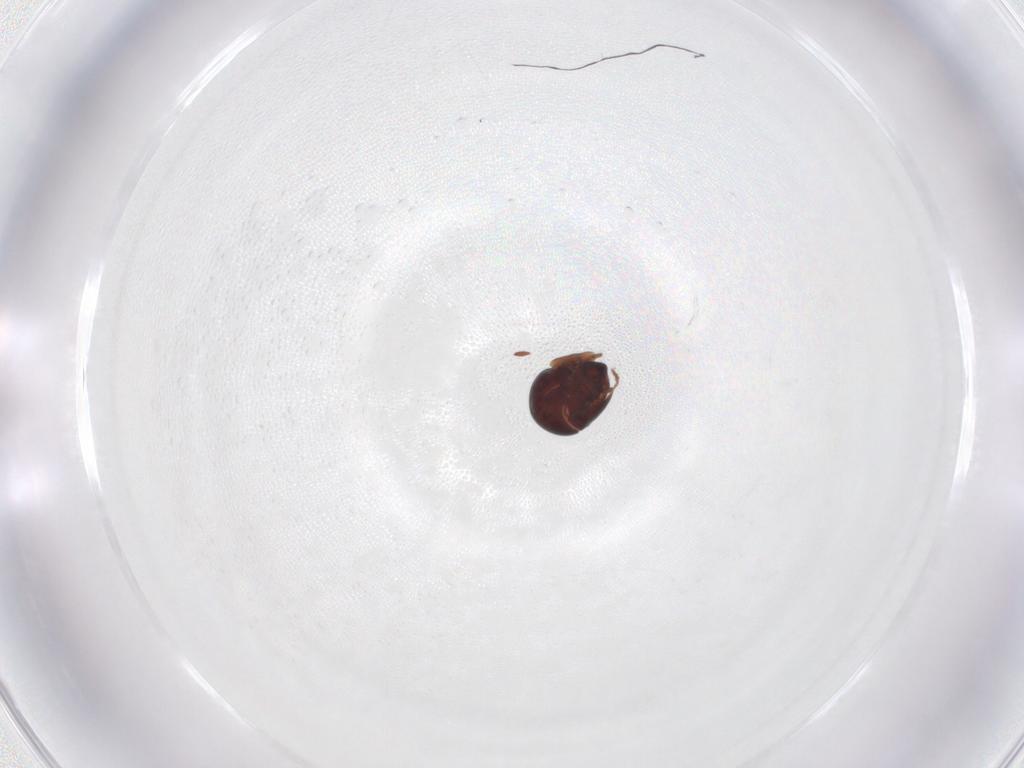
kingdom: Animalia
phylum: Arthropoda
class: Arachnida
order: Sarcoptiformes
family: Galumnidae
